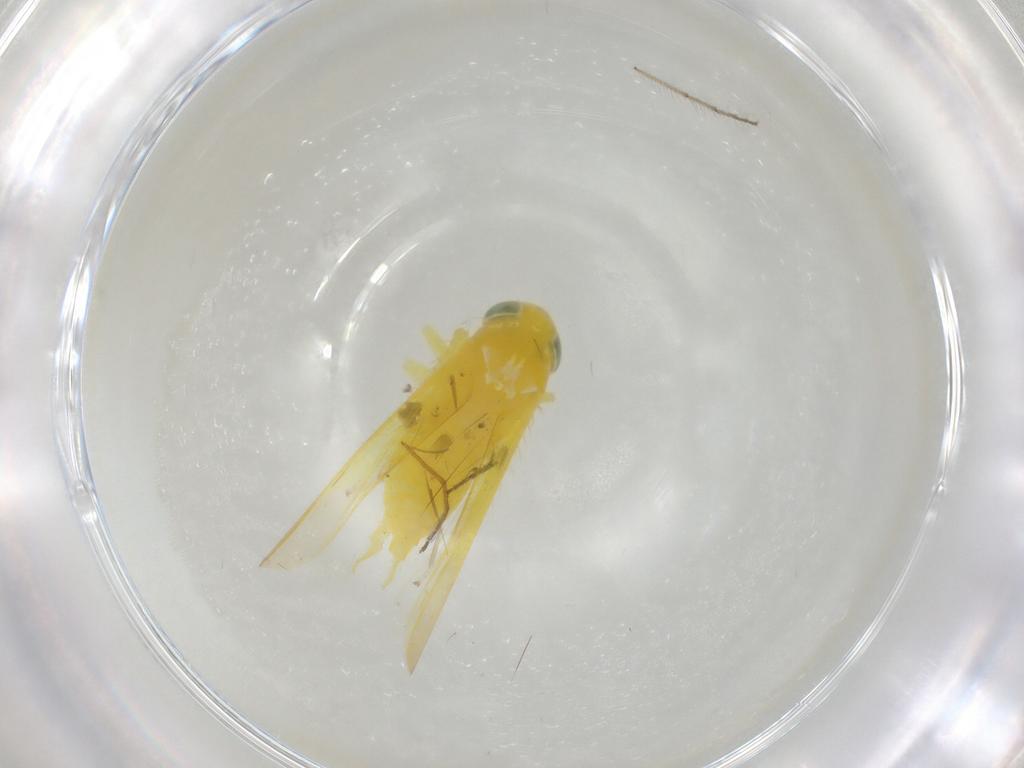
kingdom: Animalia
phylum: Arthropoda
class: Insecta
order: Hemiptera
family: Cicadellidae
